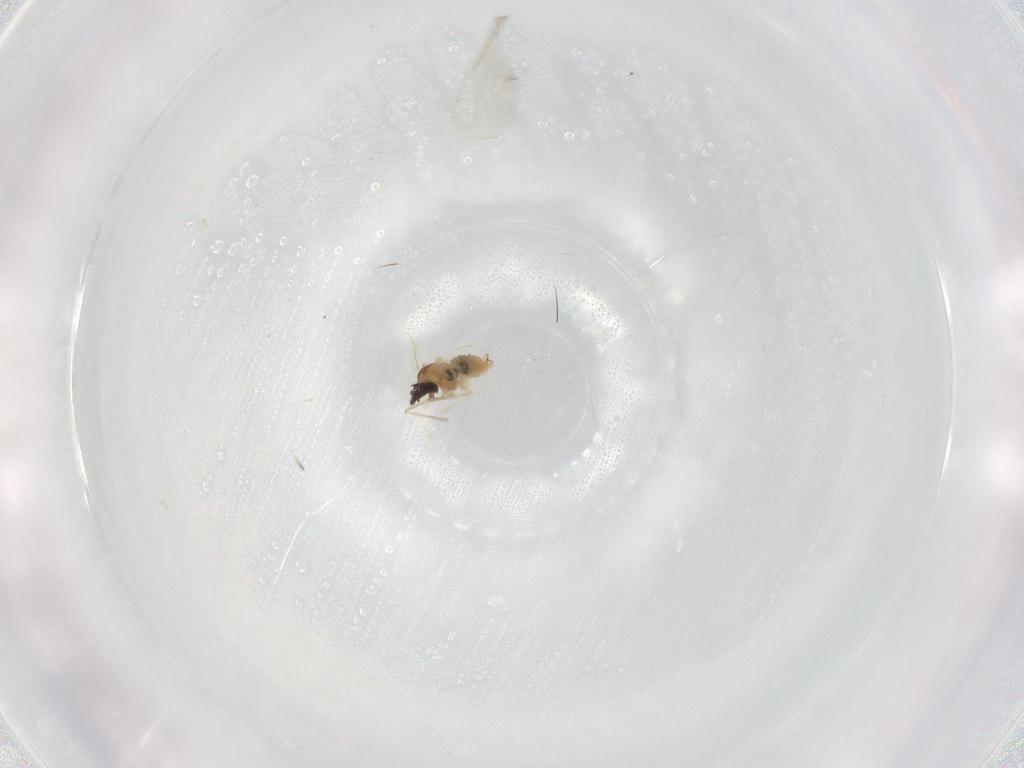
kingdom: Animalia
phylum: Arthropoda
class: Insecta
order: Diptera
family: Cecidomyiidae
